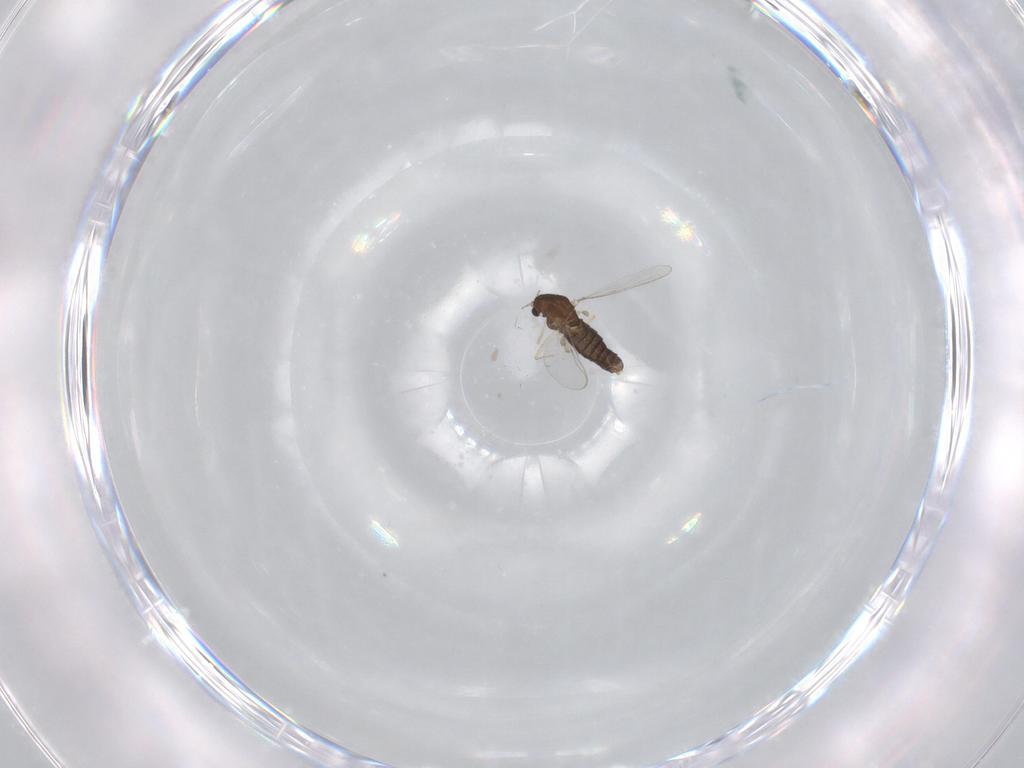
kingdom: Animalia
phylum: Arthropoda
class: Insecta
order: Diptera
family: Chironomidae
